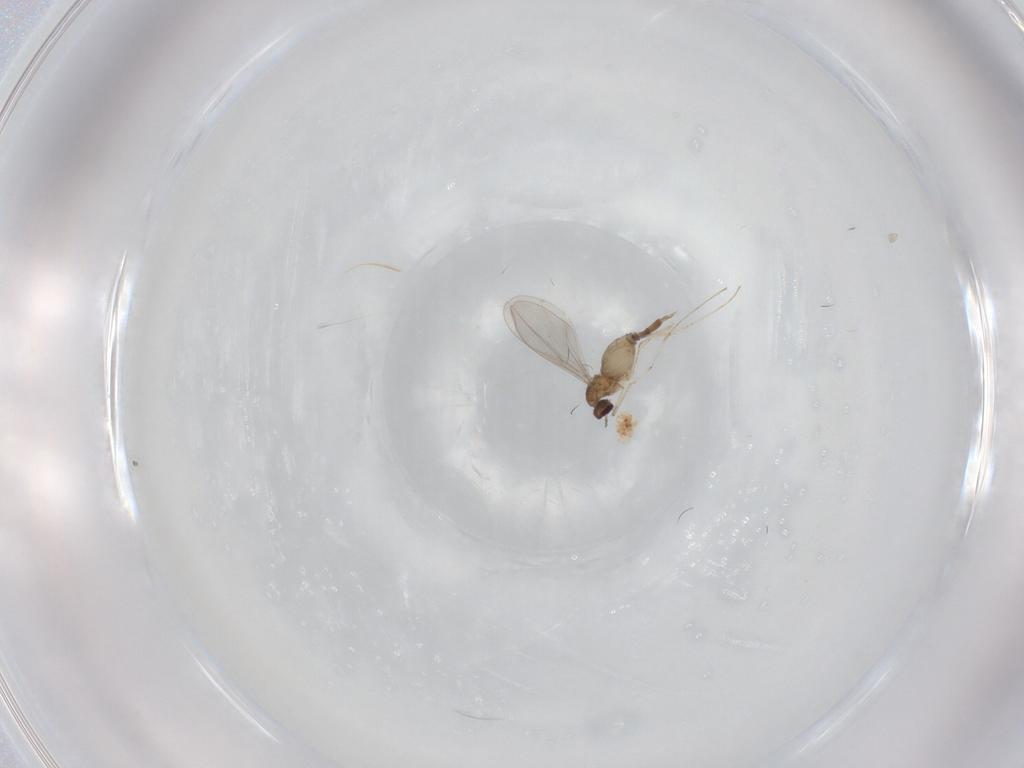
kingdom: Animalia
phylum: Arthropoda
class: Insecta
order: Diptera
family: Cecidomyiidae
